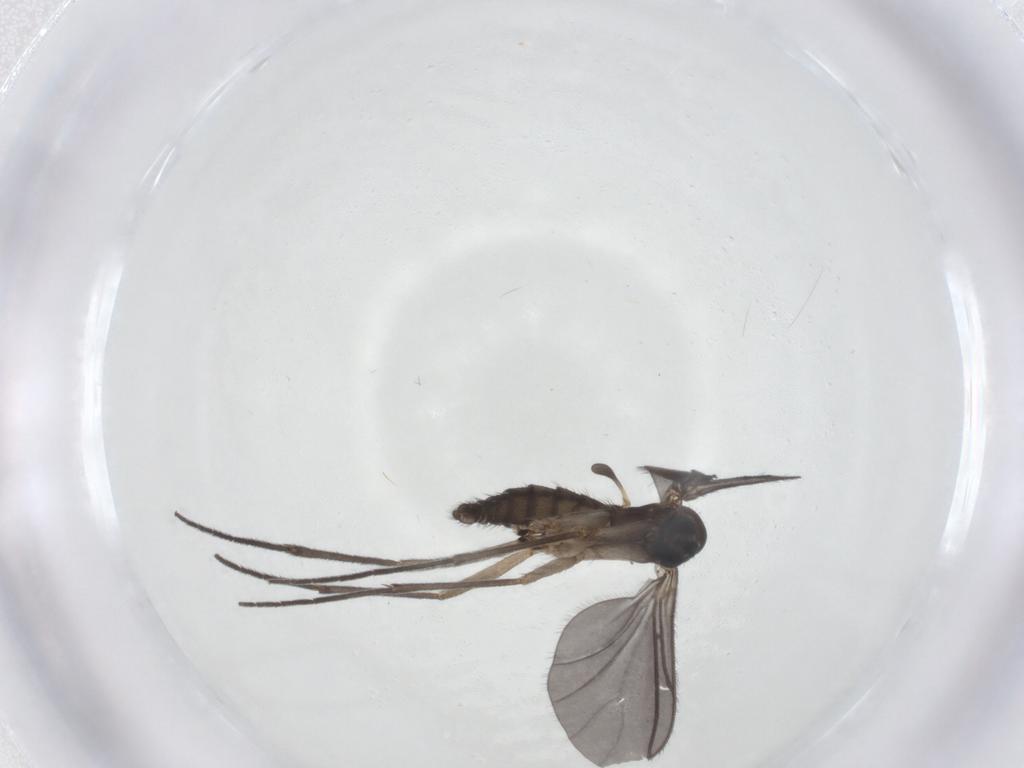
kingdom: Animalia
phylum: Arthropoda
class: Insecta
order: Diptera
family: Sciaridae
